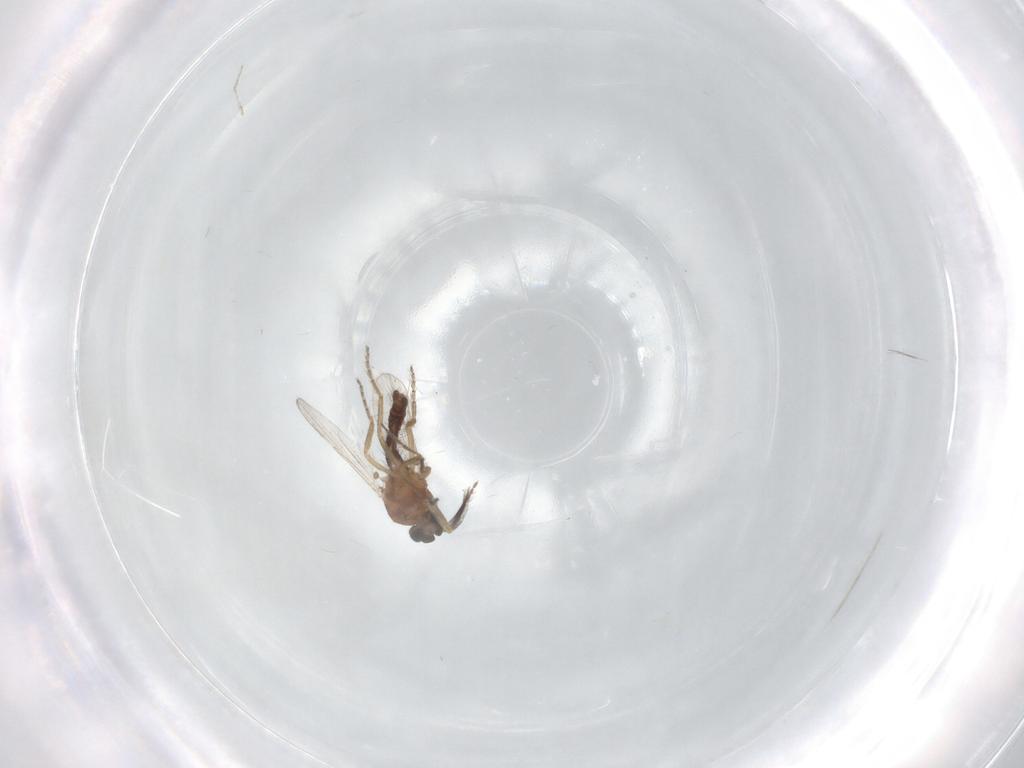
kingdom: Animalia
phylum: Arthropoda
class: Insecta
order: Diptera
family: Ceratopogonidae
